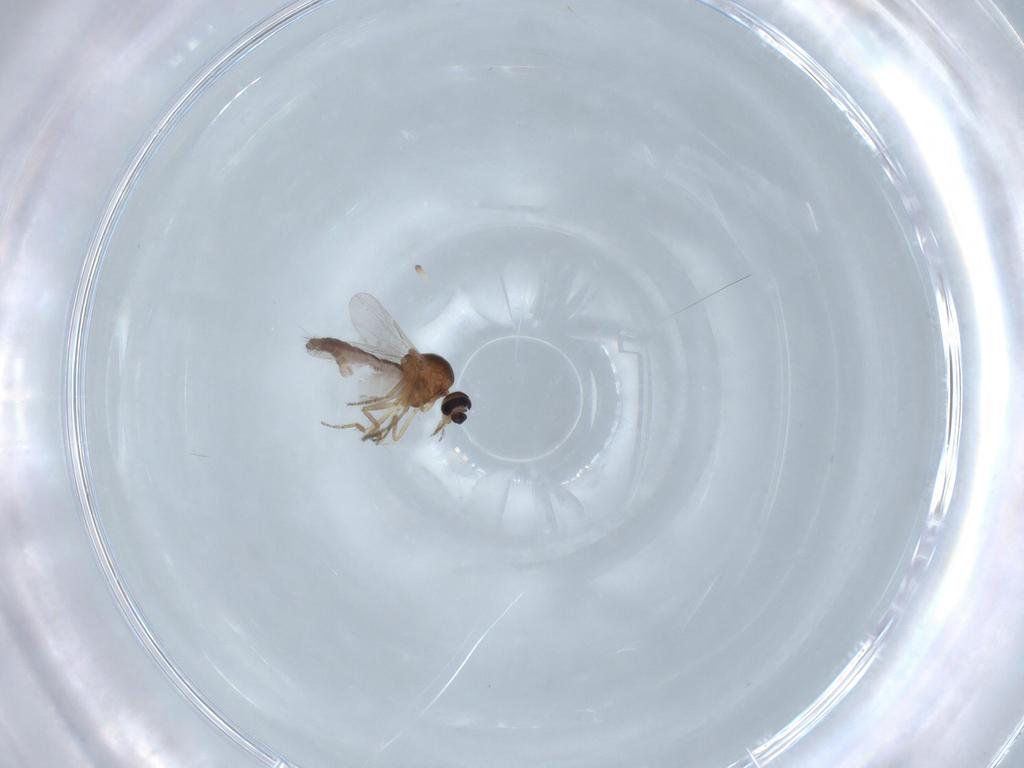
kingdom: Animalia
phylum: Arthropoda
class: Insecta
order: Diptera
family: Ceratopogonidae
